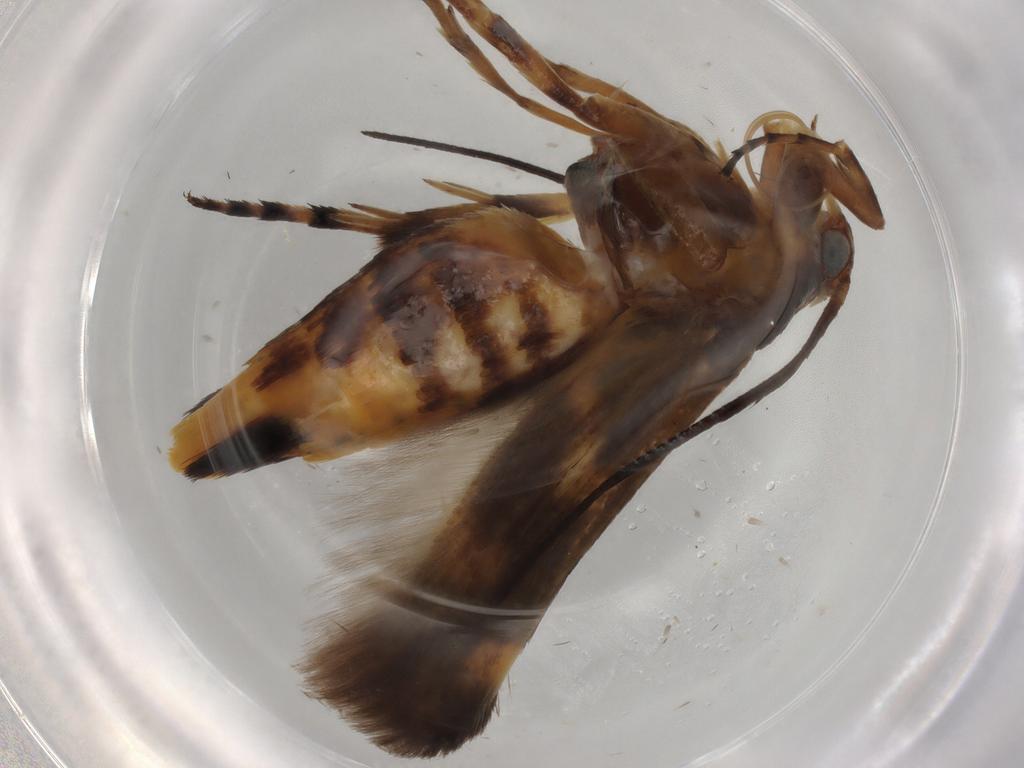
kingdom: Animalia
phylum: Arthropoda
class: Insecta
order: Lepidoptera
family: Scythrididae
